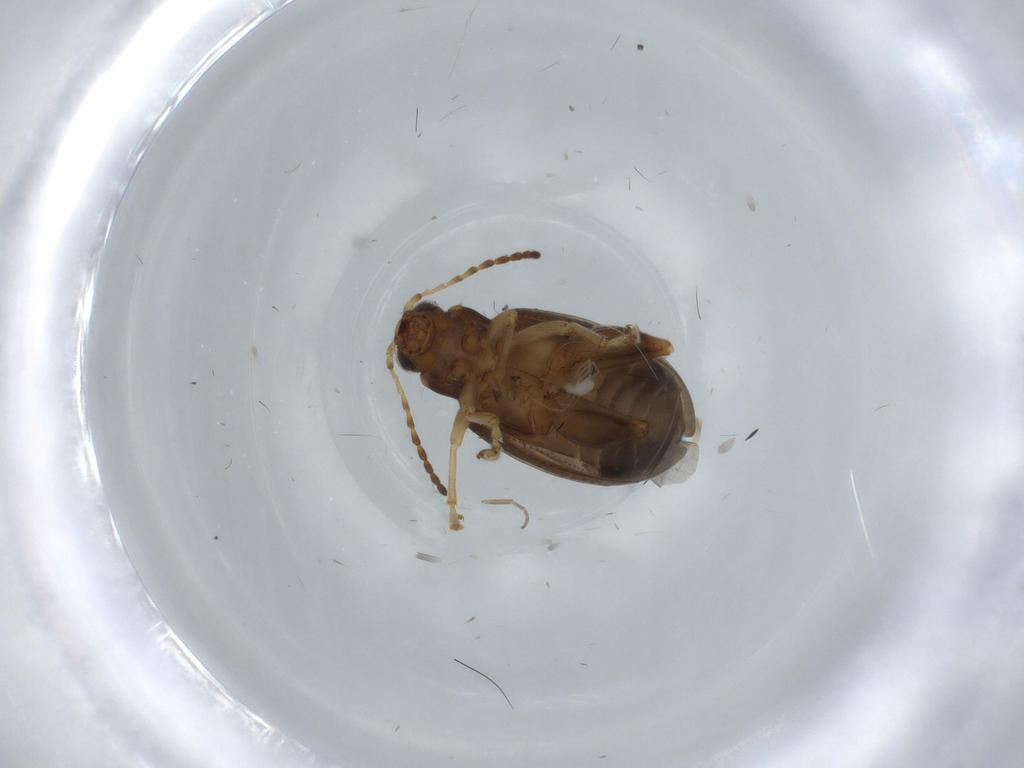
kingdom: Animalia
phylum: Arthropoda
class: Insecta
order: Coleoptera
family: Chrysomelidae
